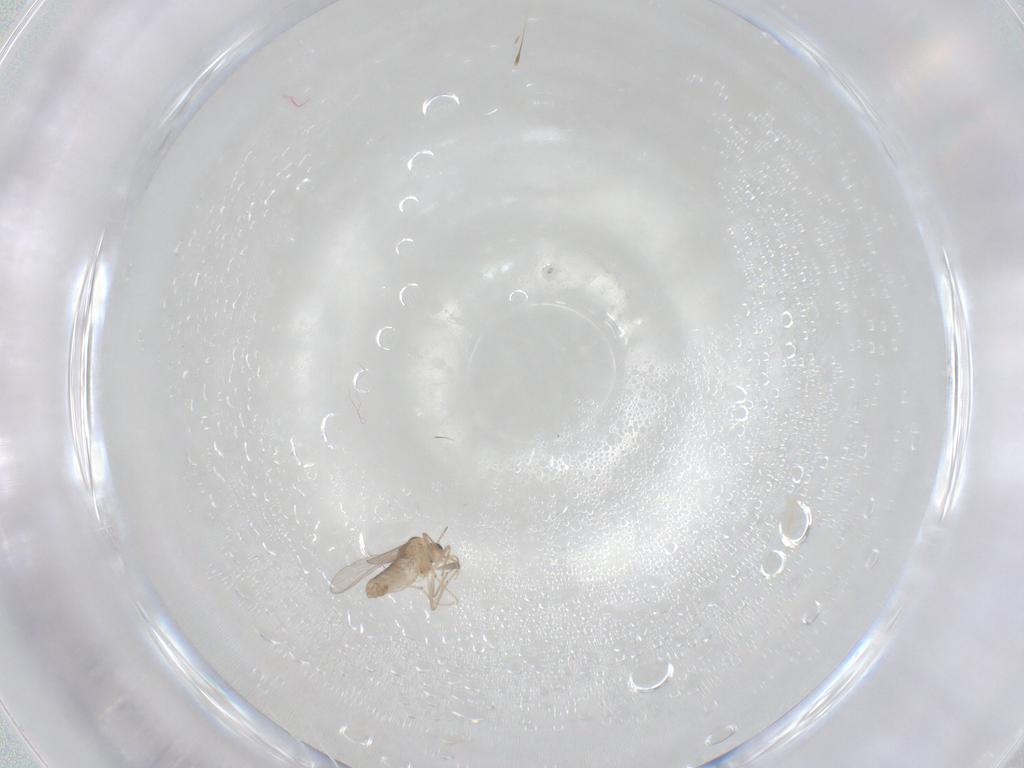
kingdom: Animalia
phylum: Arthropoda
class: Insecta
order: Diptera
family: Chironomidae
